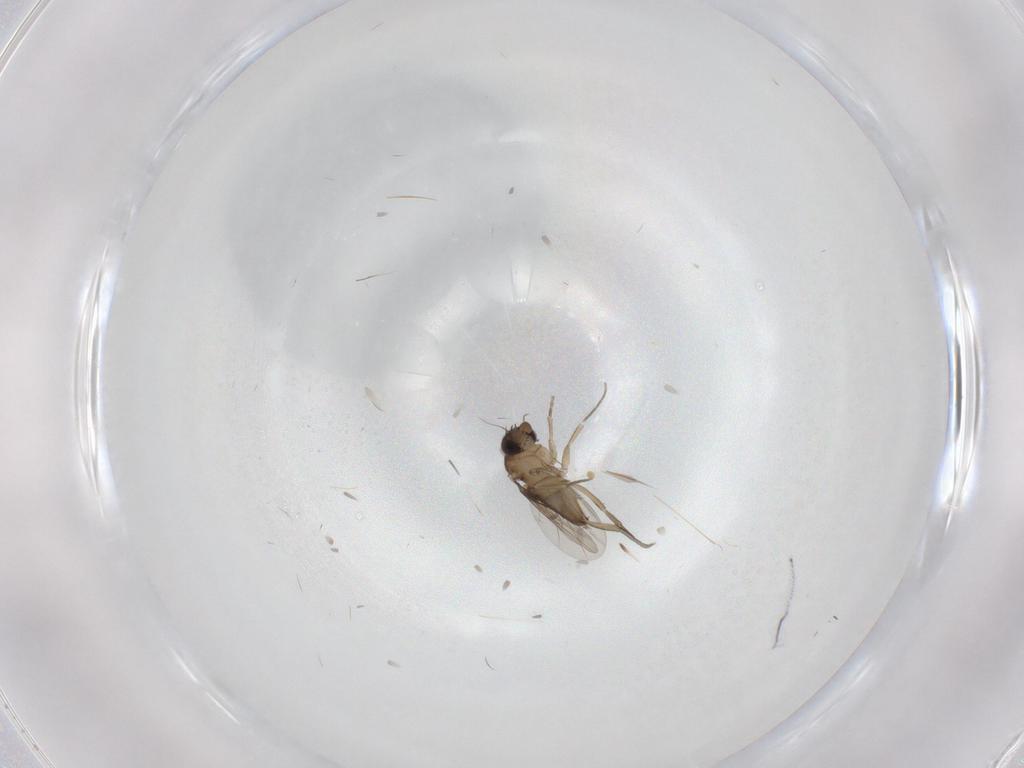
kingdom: Animalia
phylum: Arthropoda
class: Insecta
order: Diptera
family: Phoridae
